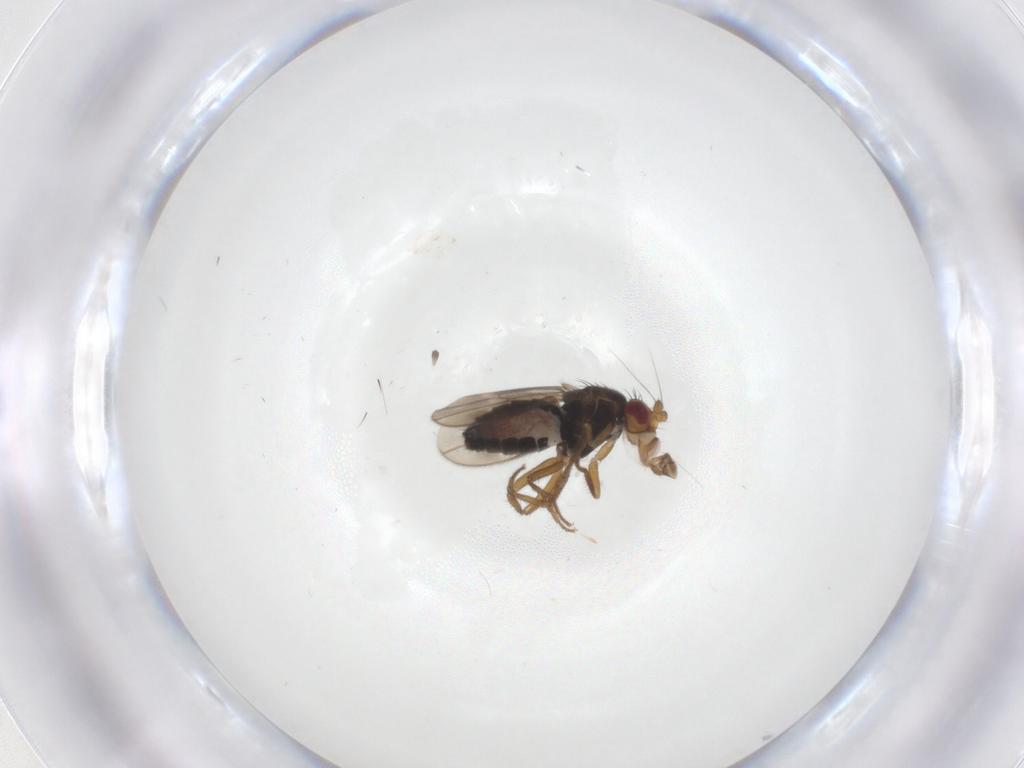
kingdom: Animalia
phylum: Arthropoda
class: Insecta
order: Diptera
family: Sphaeroceridae
